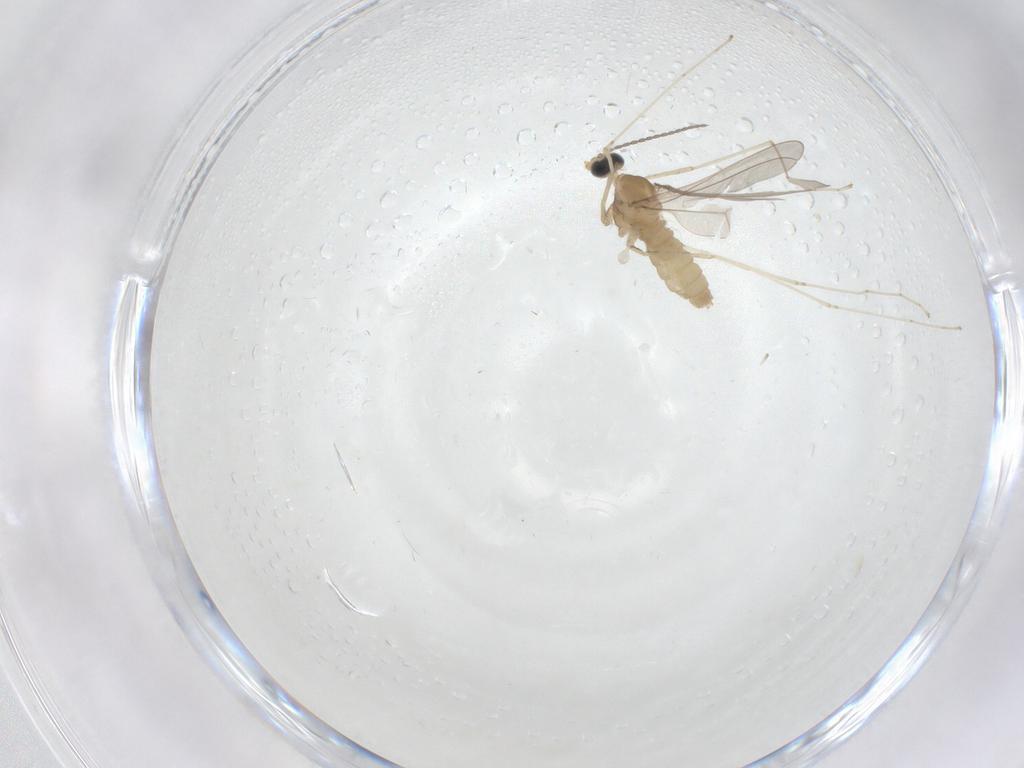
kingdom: Animalia
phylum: Arthropoda
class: Insecta
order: Diptera
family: Cecidomyiidae
